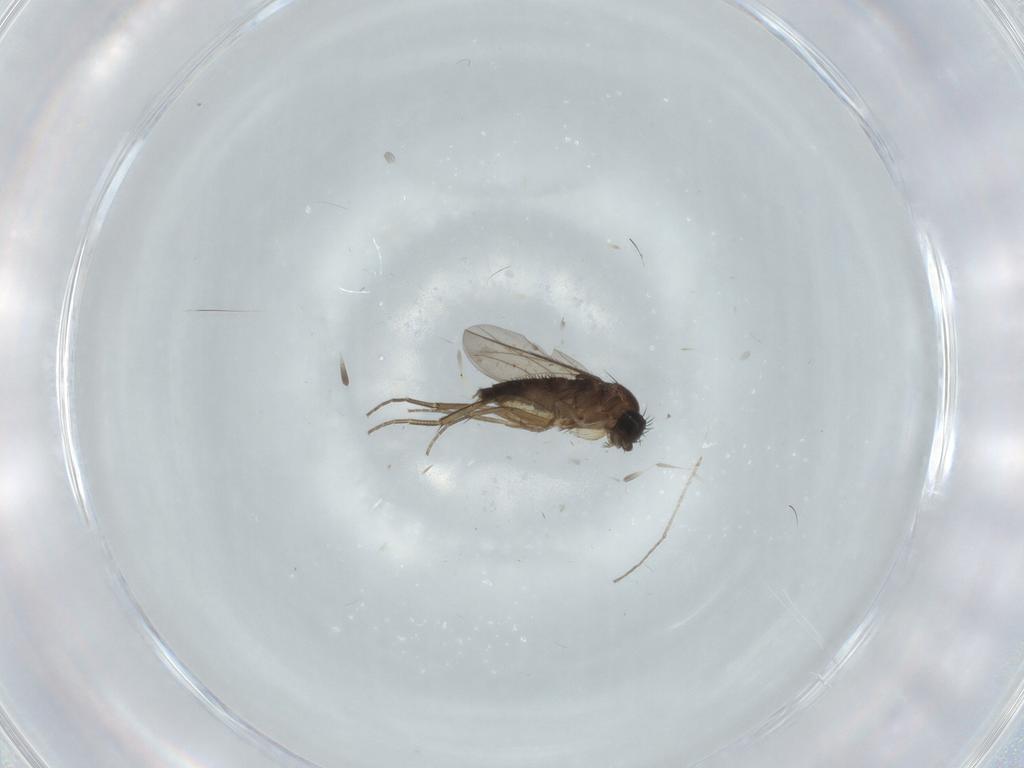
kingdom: Animalia
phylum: Arthropoda
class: Insecta
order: Diptera
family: Phoridae
